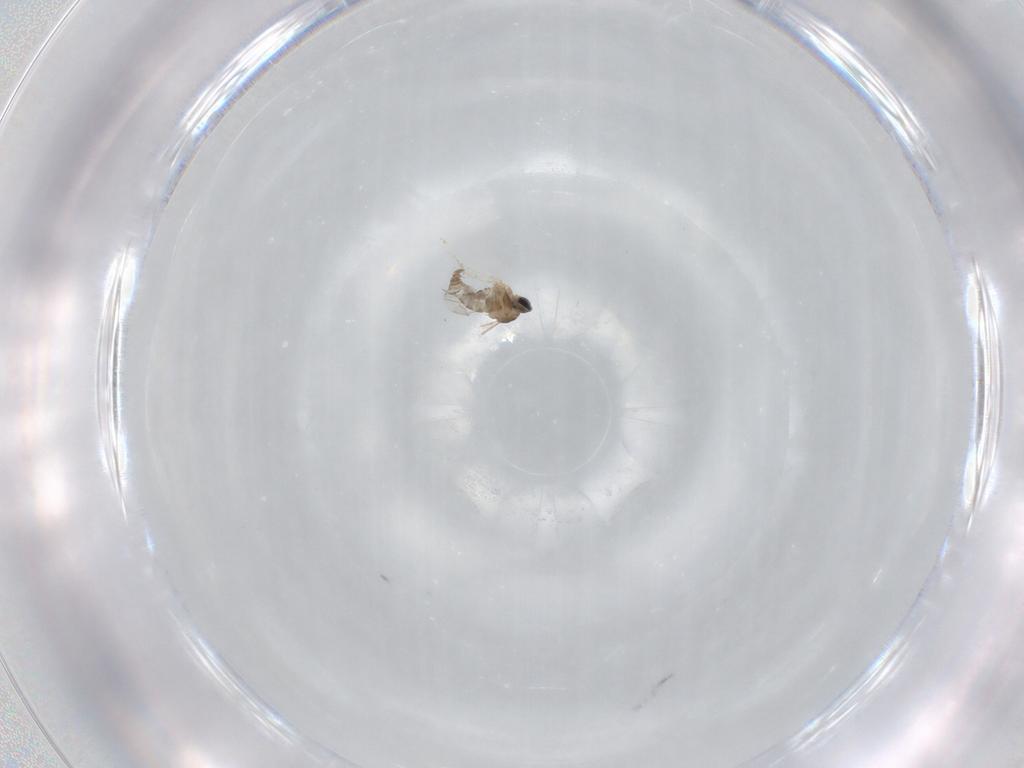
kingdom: Animalia
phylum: Arthropoda
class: Insecta
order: Diptera
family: Cecidomyiidae
